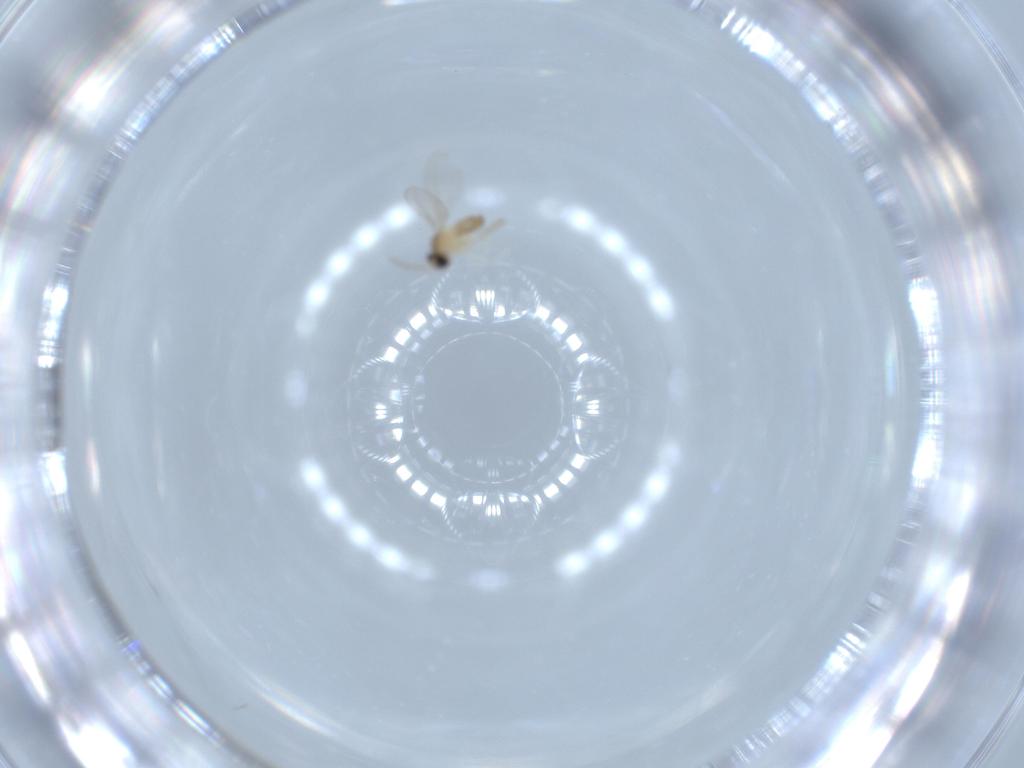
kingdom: Animalia
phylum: Arthropoda
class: Insecta
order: Diptera
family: Cecidomyiidae
